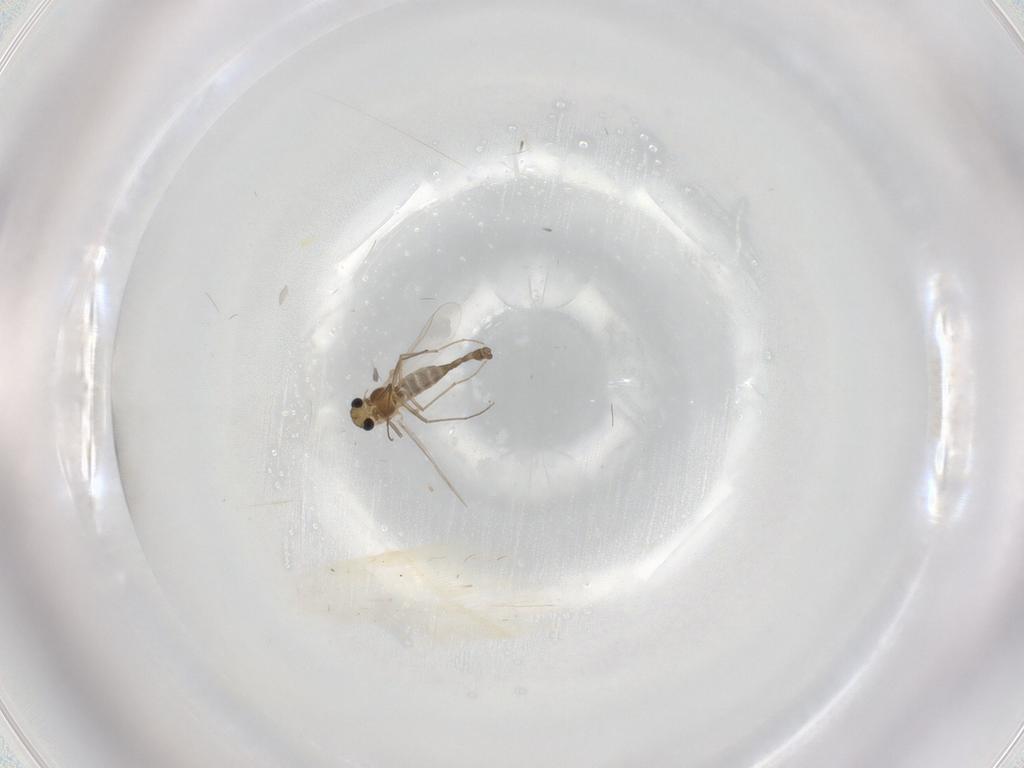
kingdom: Animalia
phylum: Arthropoda
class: Insecta
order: Diptera
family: Chironomidae
